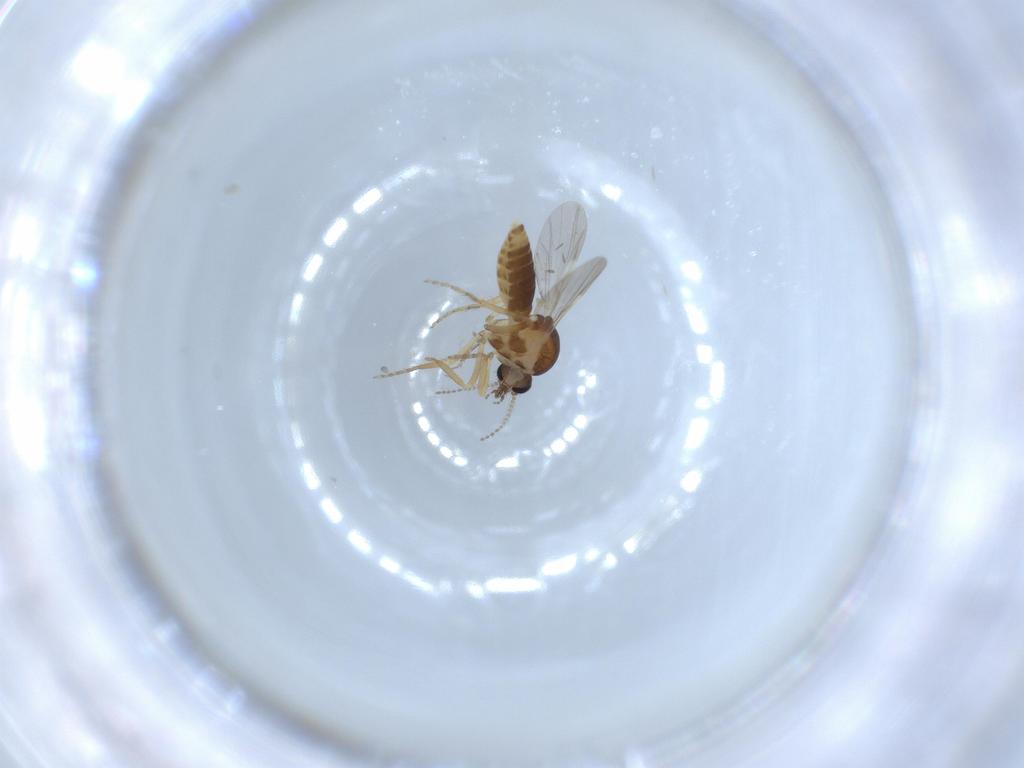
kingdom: Animalia
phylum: Arthropoda
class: Insecta
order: Diptera
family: Ceratopogonidae
